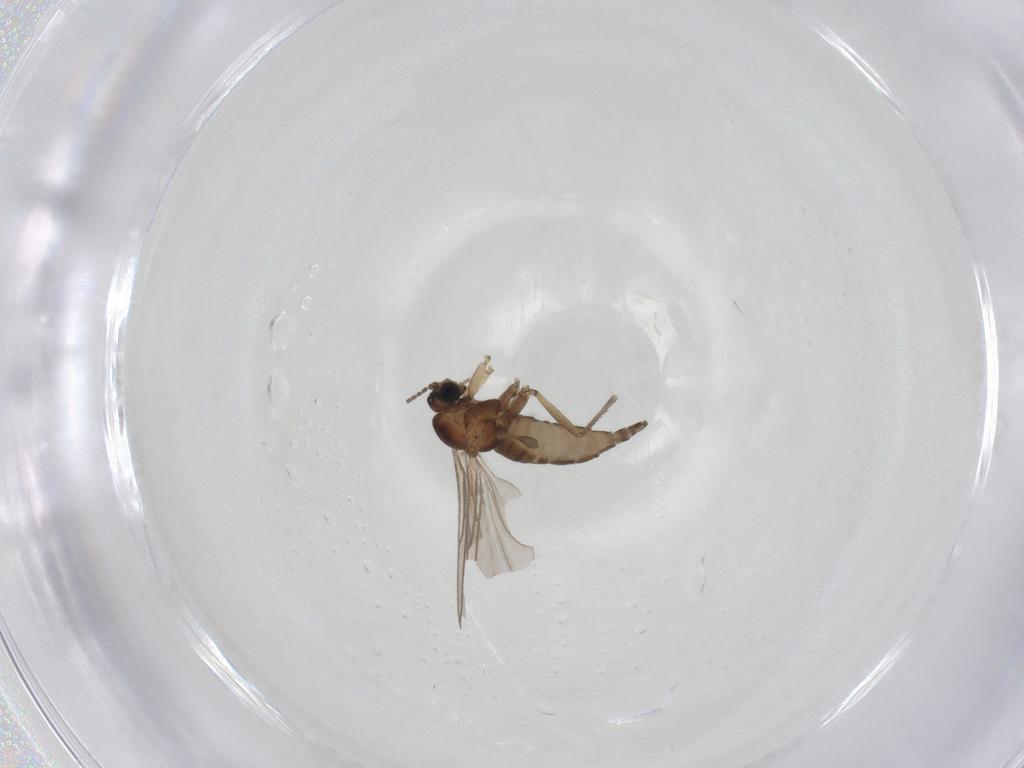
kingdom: Animalia
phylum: Arthropoda
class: Insecta
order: Diptera
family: Sciaridae
